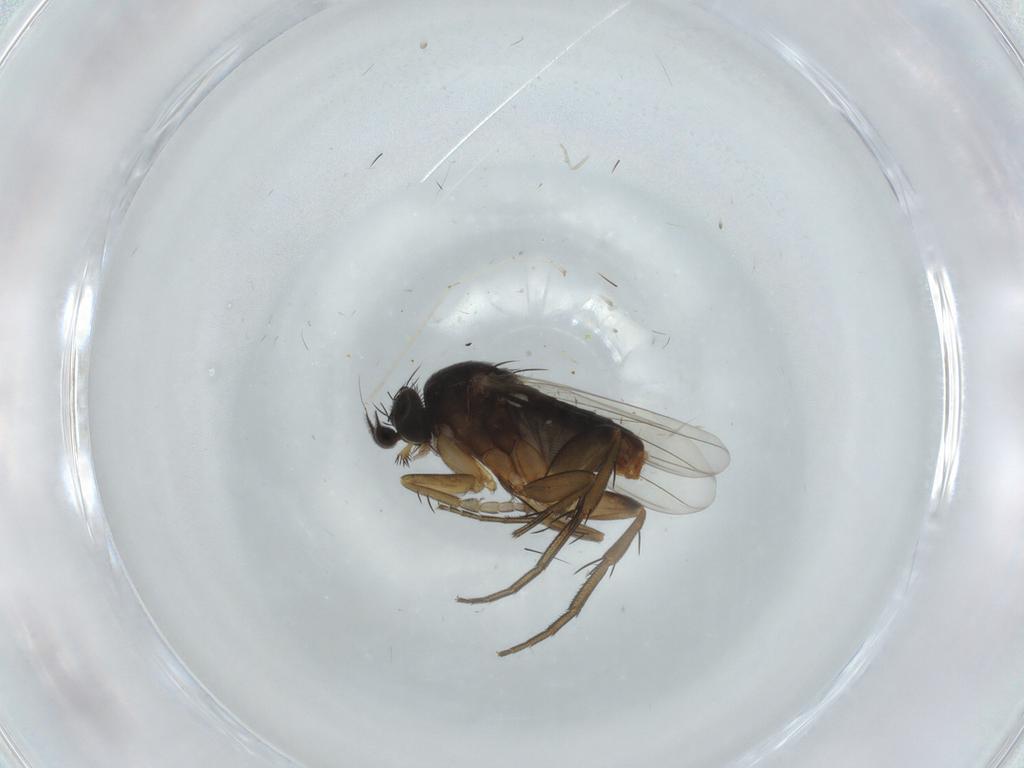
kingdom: Animalia
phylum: Arthropoda
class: Insecta
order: Diptera
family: Phoridae
